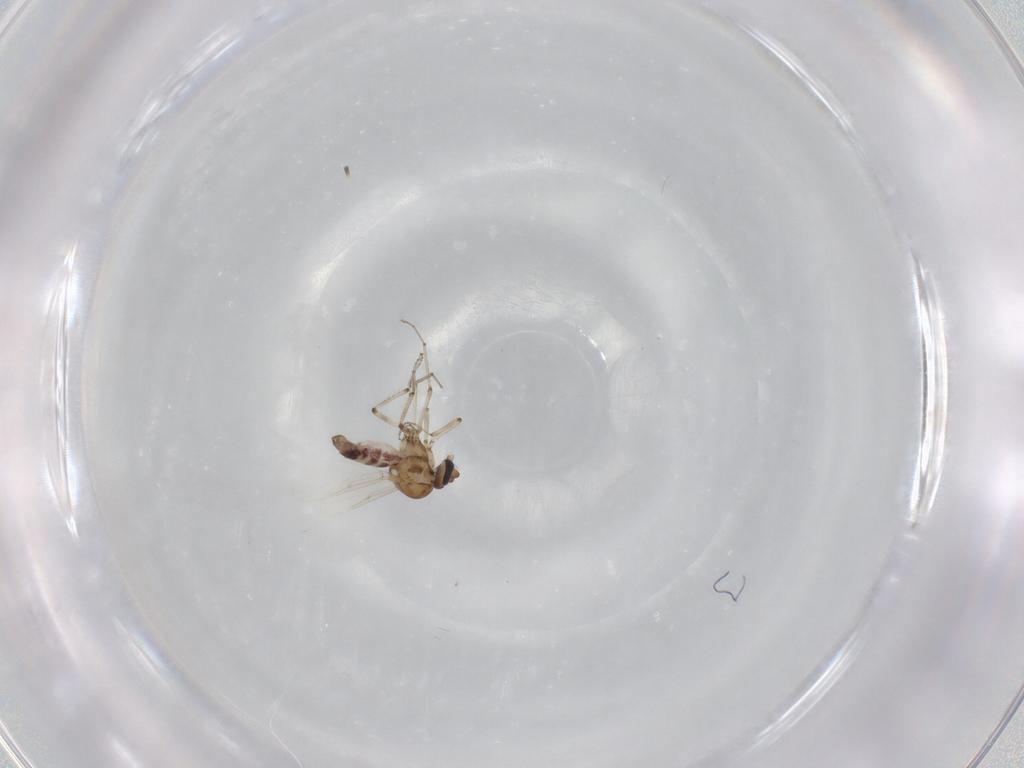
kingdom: Animalia
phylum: Arthropoda
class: Insecta
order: Diptera
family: Ceratopogonidae
